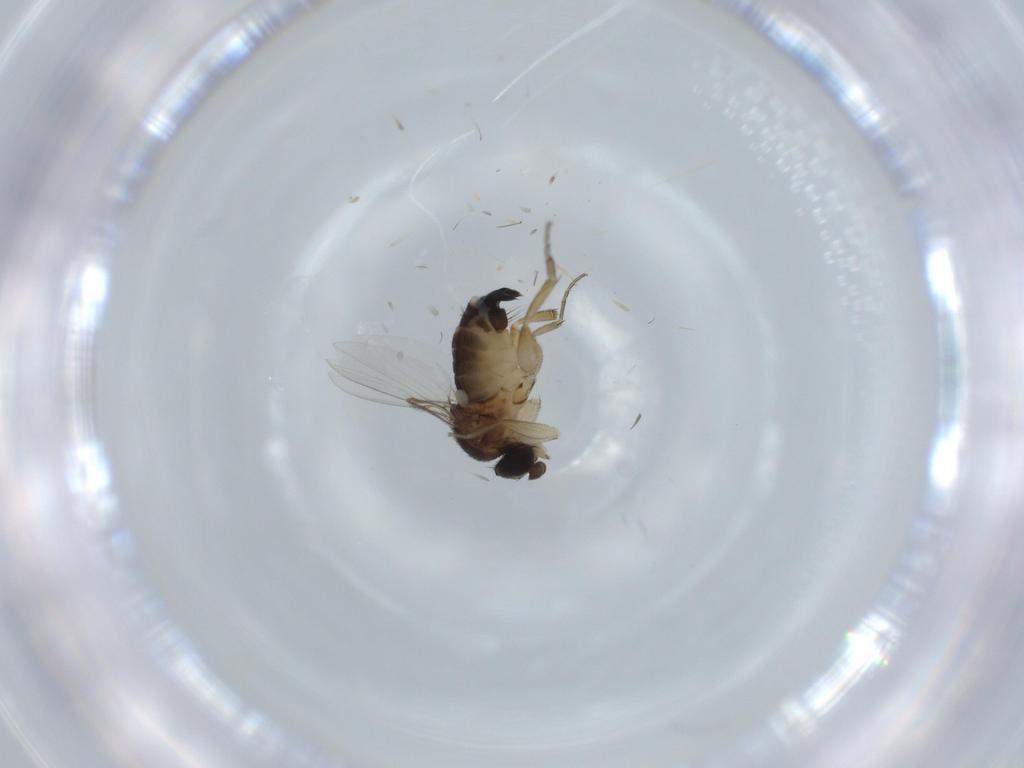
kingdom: Animalia
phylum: Arthropoda
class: Insecta
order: Diptera
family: Phoridae
